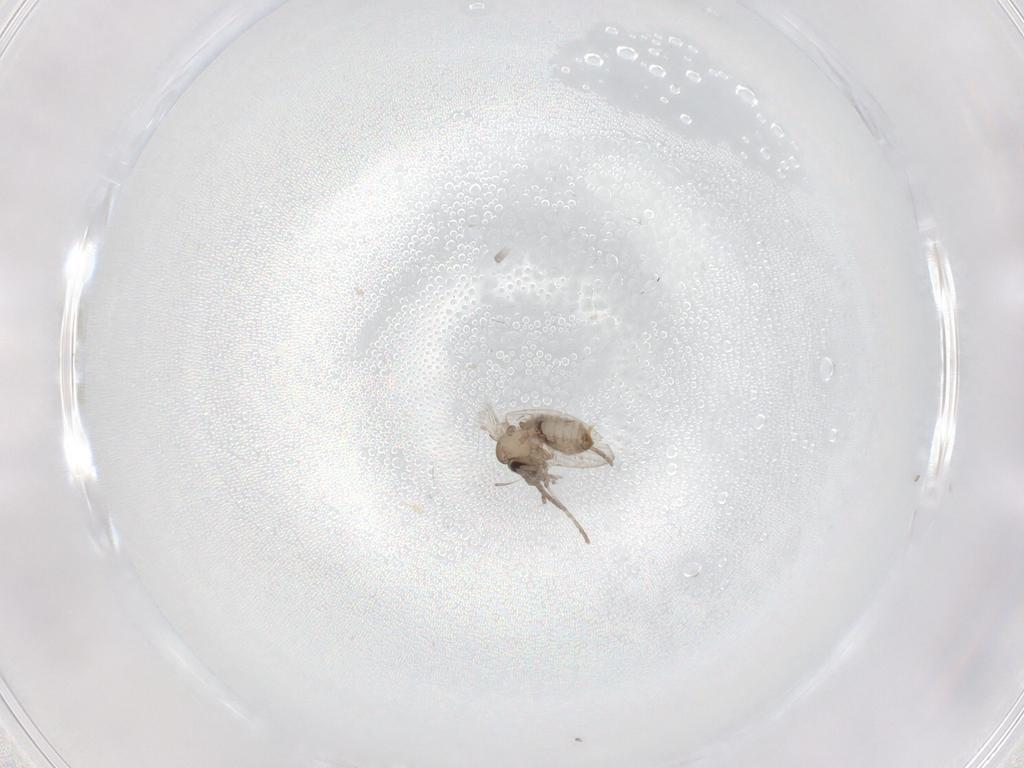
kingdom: Animalia
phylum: Arthropoda
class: Insecta
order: Diptera
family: Psychodidae
